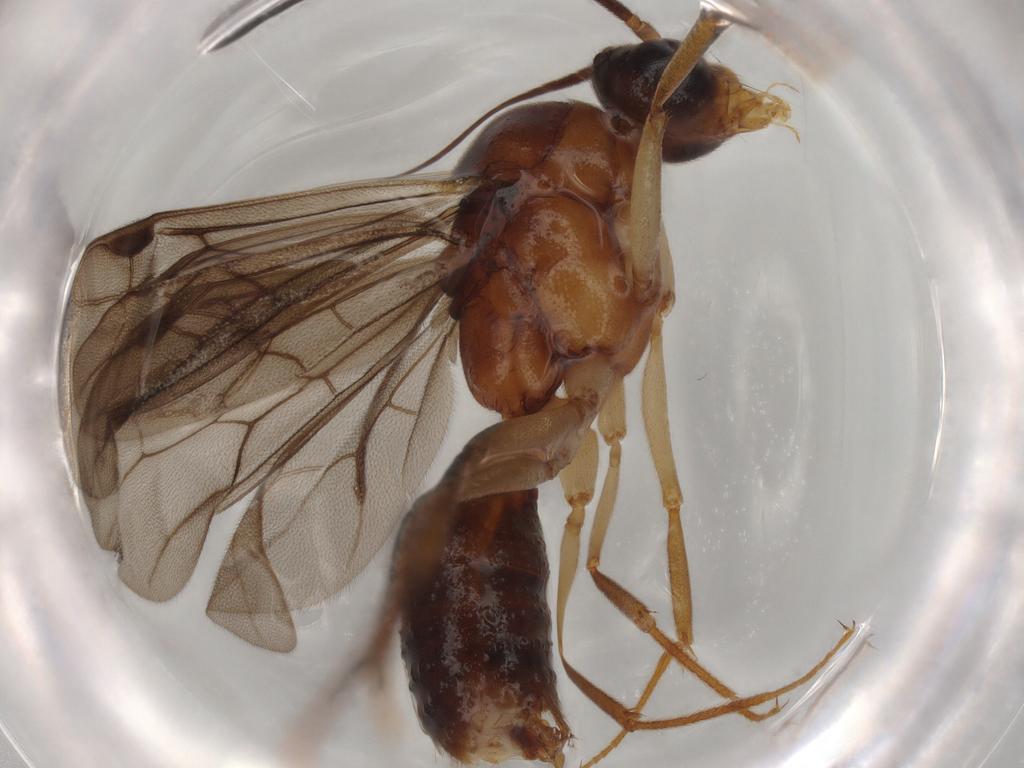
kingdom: Animalia
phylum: Arthropoda
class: Insecta
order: Hymenoptera
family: Formicidae
